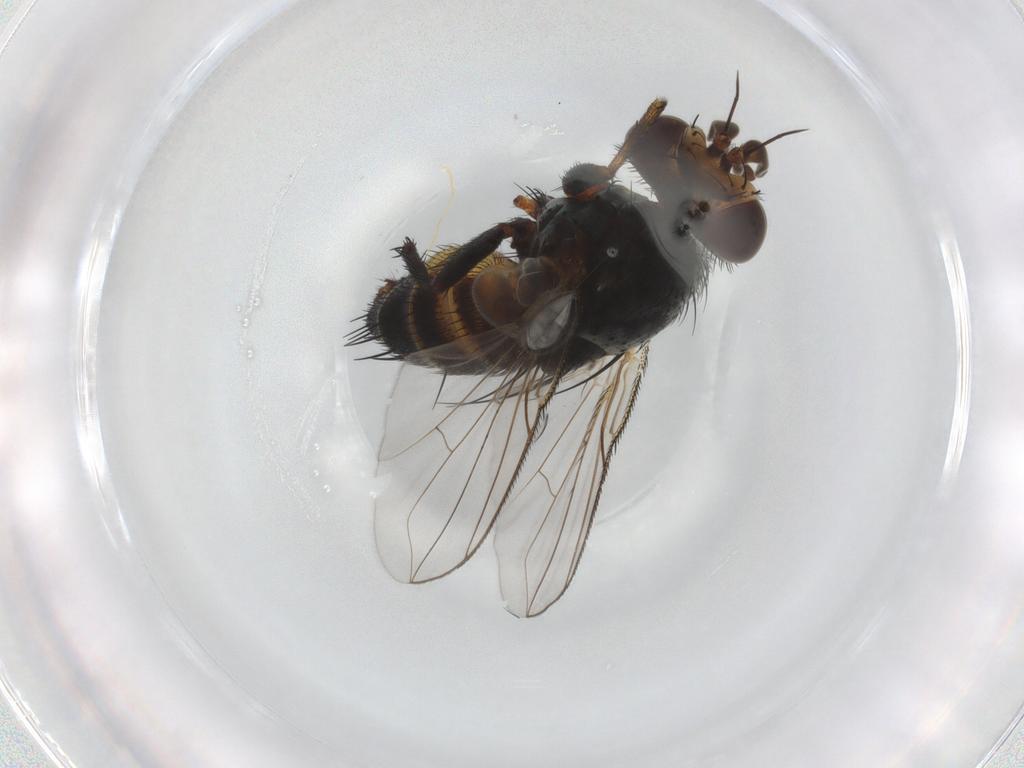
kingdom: Animalia
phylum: Arthropoda
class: Insecta
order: Diptera
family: Tachinidae
